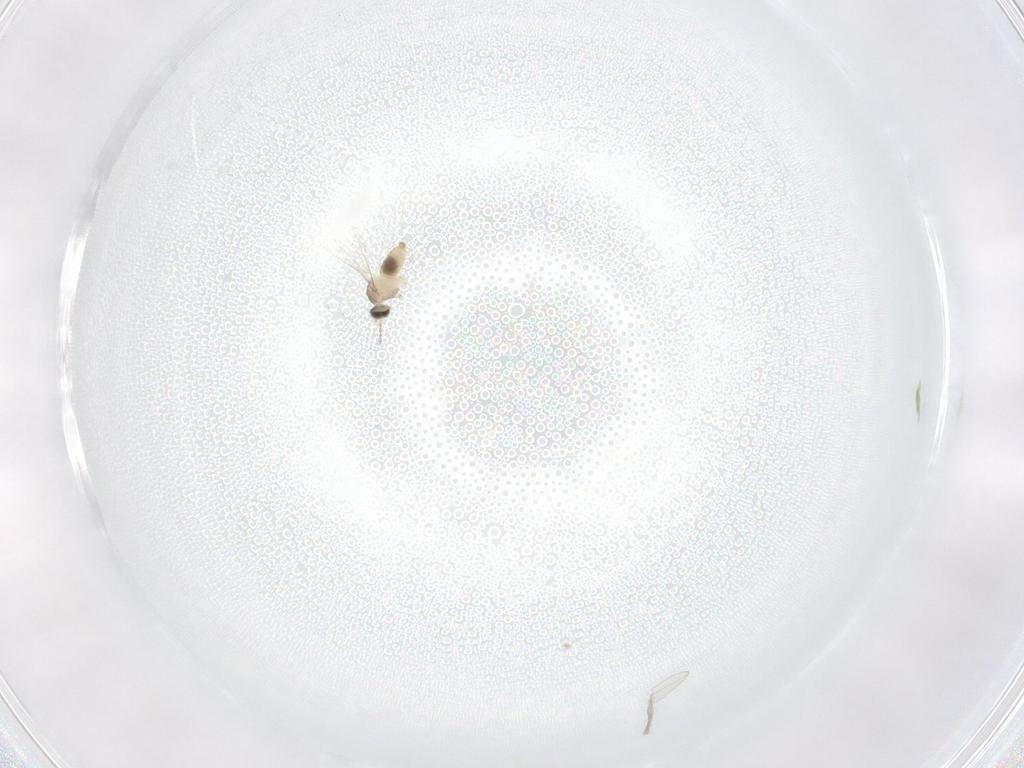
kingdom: Animalia
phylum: Arthropoda
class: Insecta
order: Diptera
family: Cecidomyiidae
